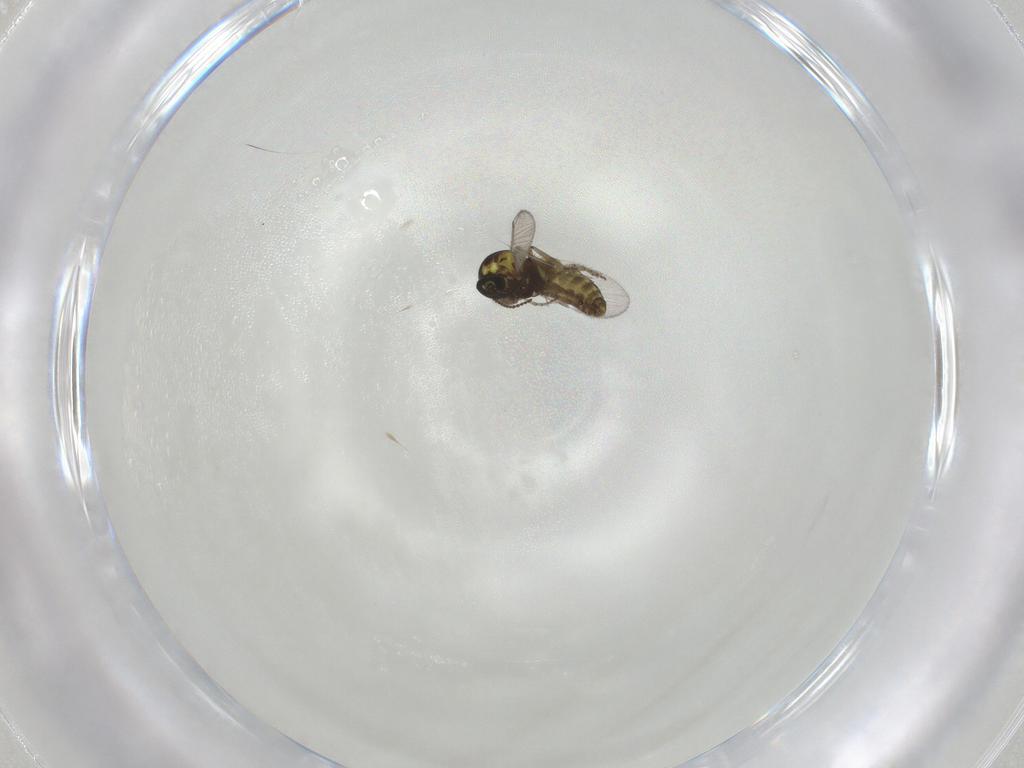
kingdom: Animalia
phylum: Arthropoda
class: Insecta
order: Diptera
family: Ceratopogonidae
